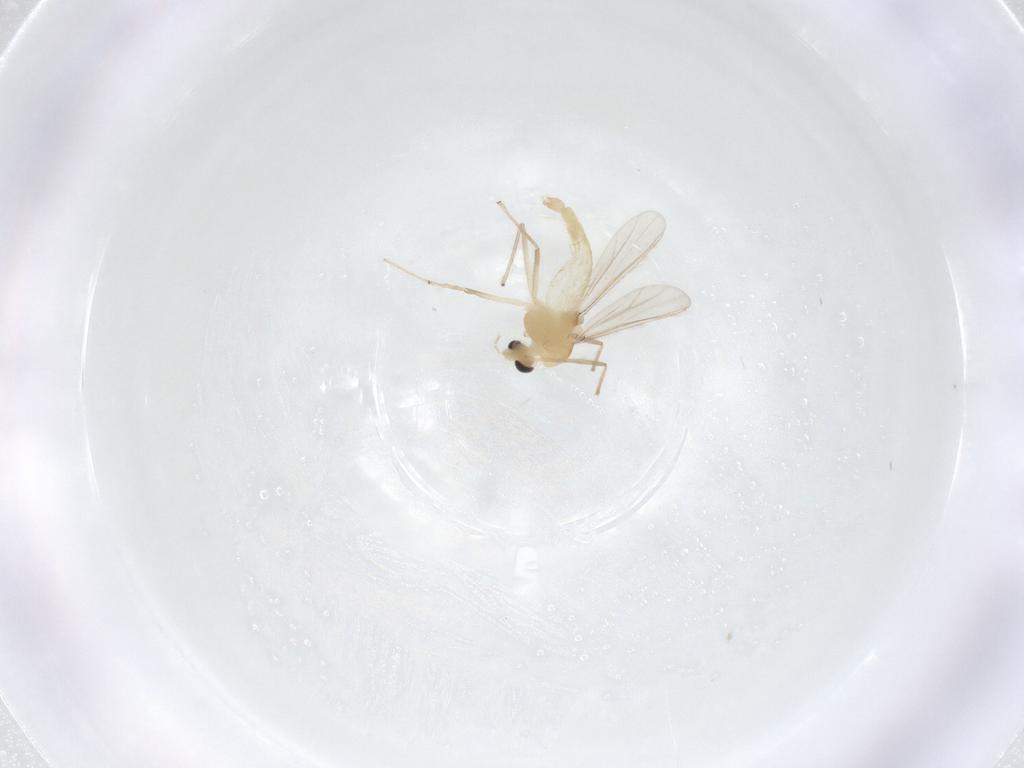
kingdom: Animalia
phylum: Arthropoda
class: Insecta
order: Diptera
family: Chironomidae
